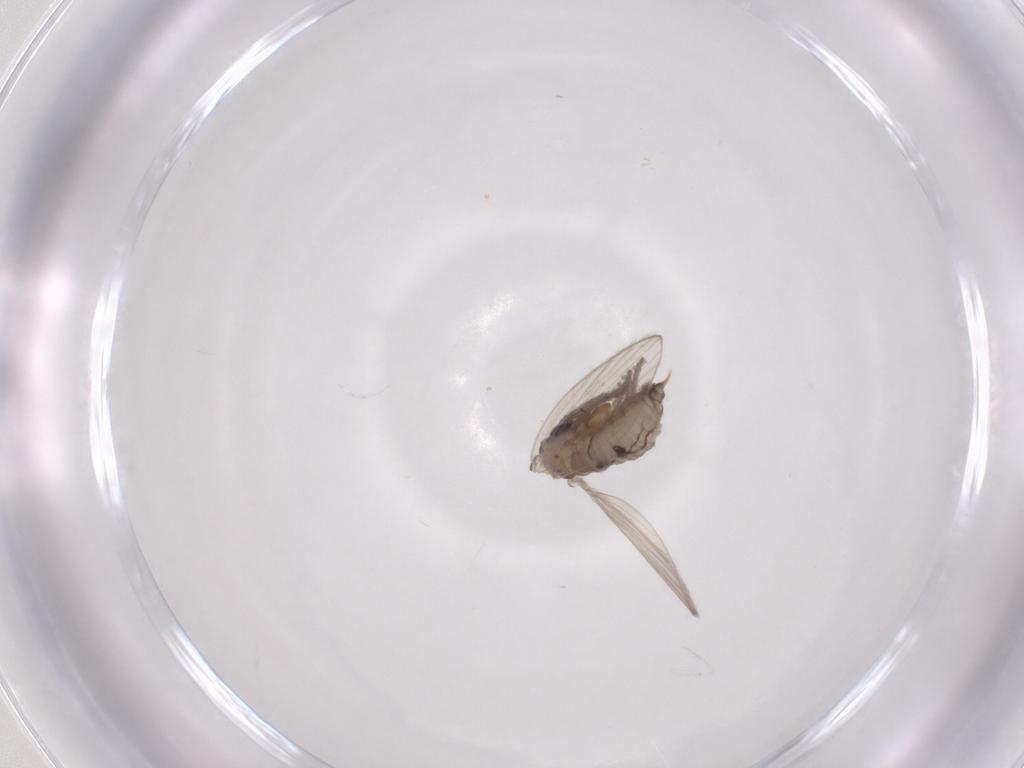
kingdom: Animalia
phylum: Arthropoda
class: Insecta
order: Diptera
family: Psychodidae
